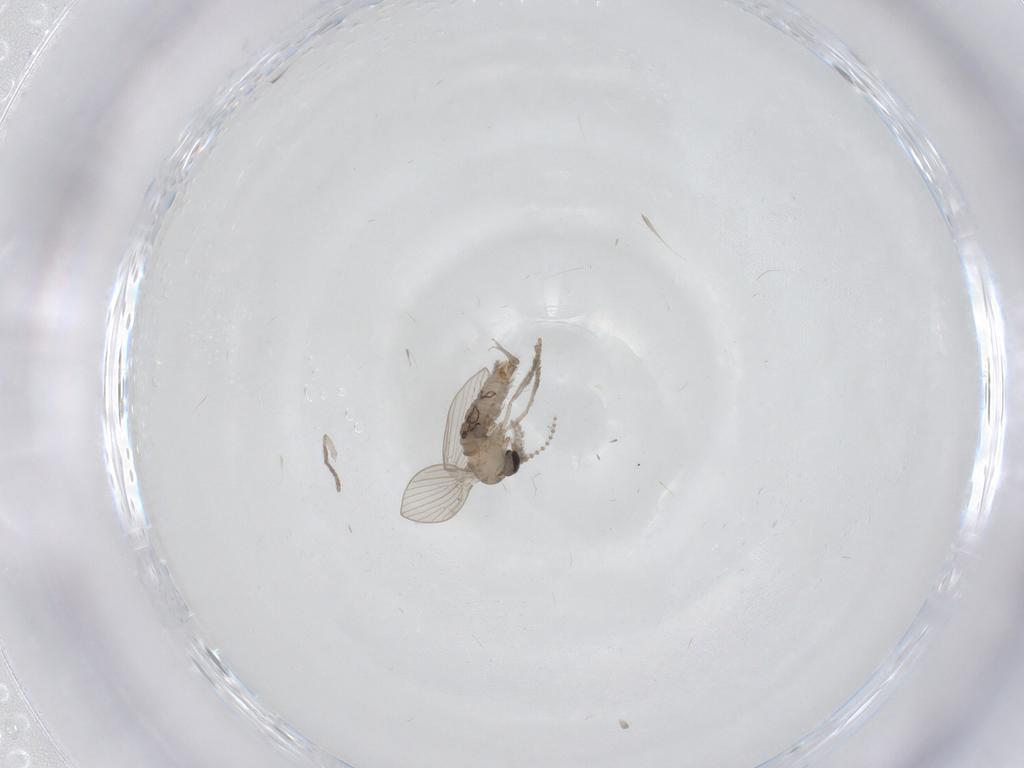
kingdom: Animalia
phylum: Arthropoda
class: Insecta
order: Diptera
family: Psychodidae
